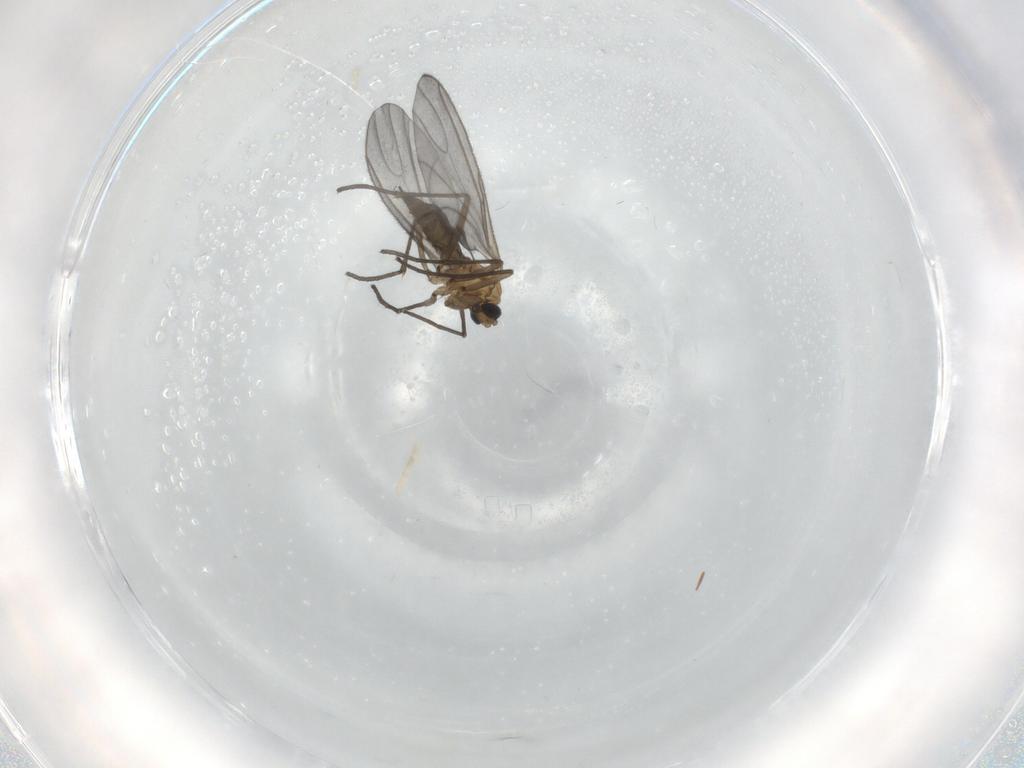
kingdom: Animalia
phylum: Arthropoda
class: Insecta
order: Diptera
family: Sciaridae
